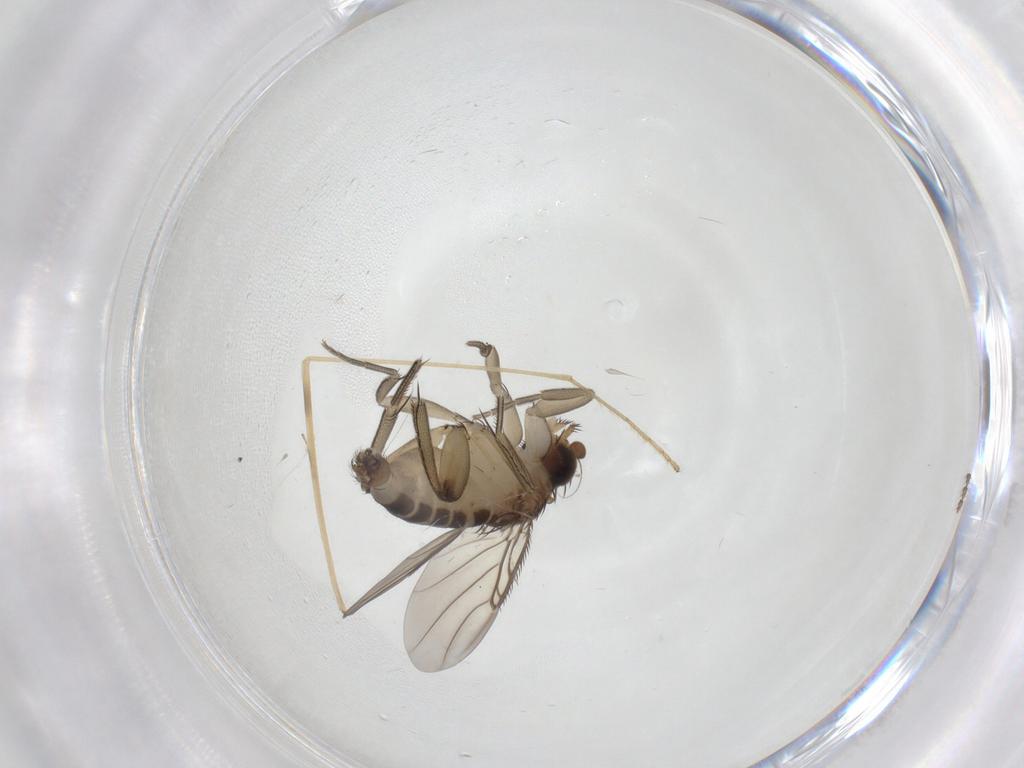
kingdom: Animalia
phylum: Arthropoda
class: Insecta
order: Diptera
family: Phoridae
